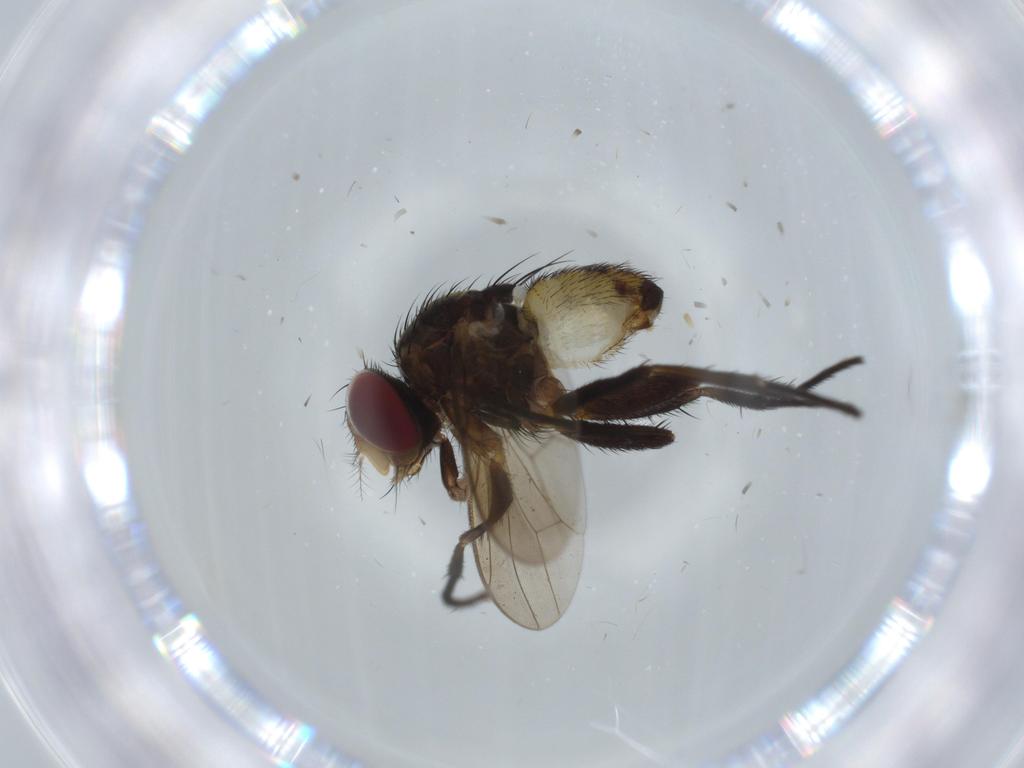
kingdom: Animalia
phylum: Arthropoda
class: Insecta
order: Diptera
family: Anthomyiidae
